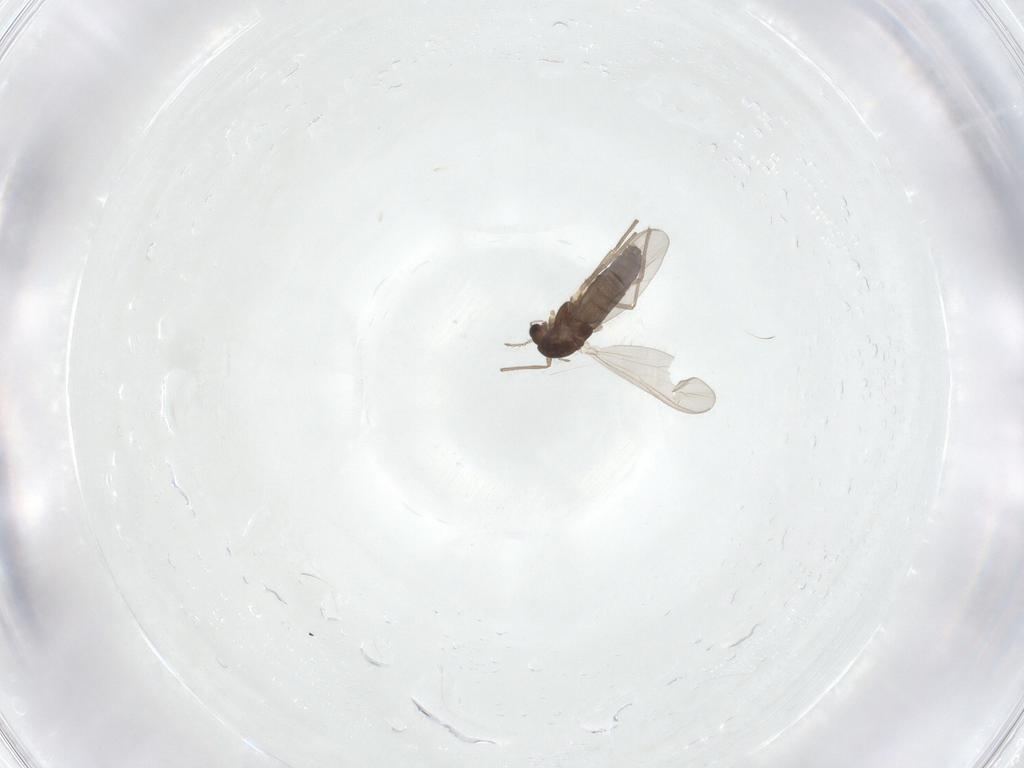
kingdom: Animalia
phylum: Arthropoda
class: Insecta
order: Diptera
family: Chironomidae
